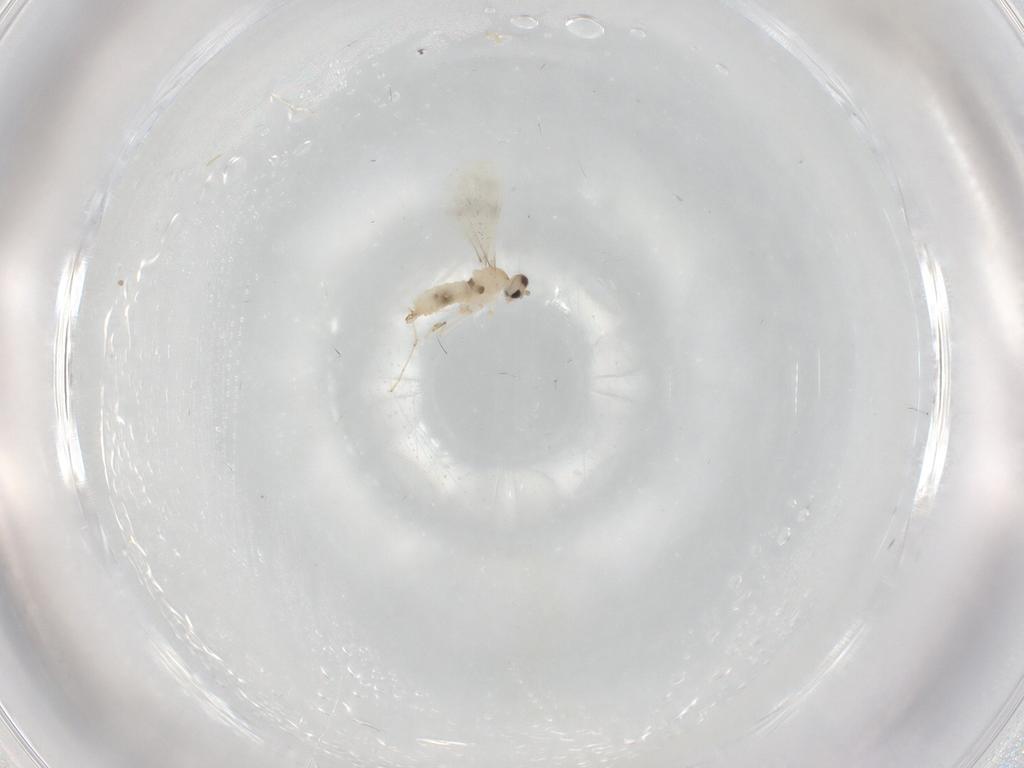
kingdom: Animalia
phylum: Arthropoda
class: Insecta
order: Diptera
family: Cecidomyiidae
